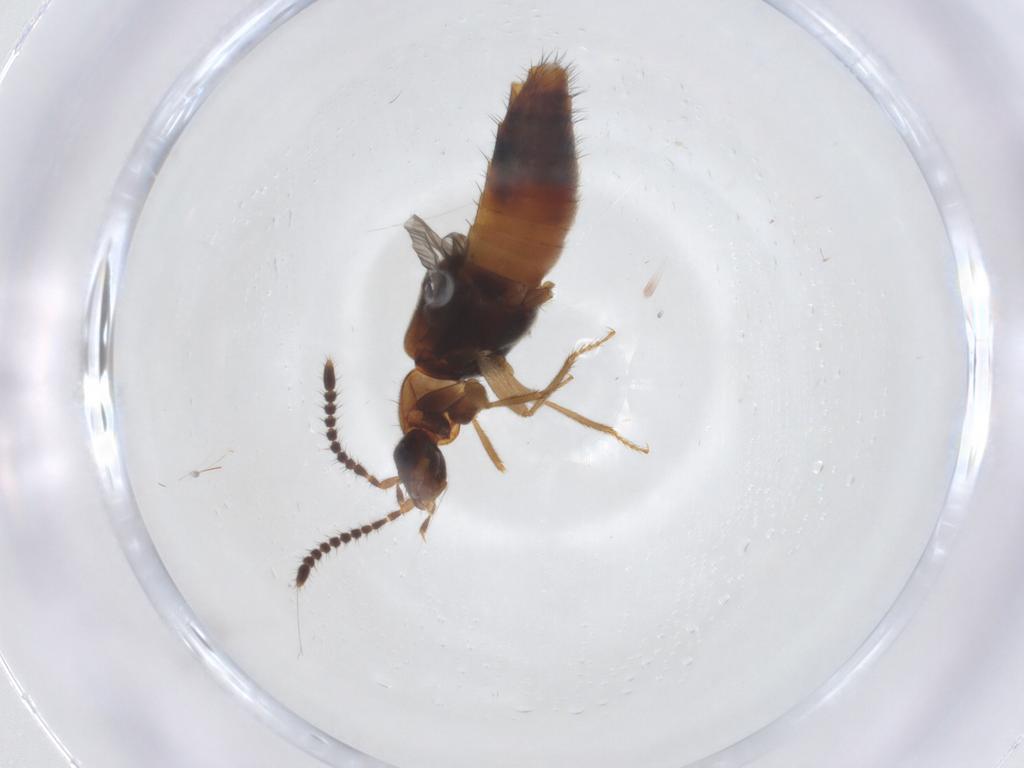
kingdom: Animalia
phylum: Arthropoda
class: Insecta
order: Coleoptera
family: Staphylinidae
